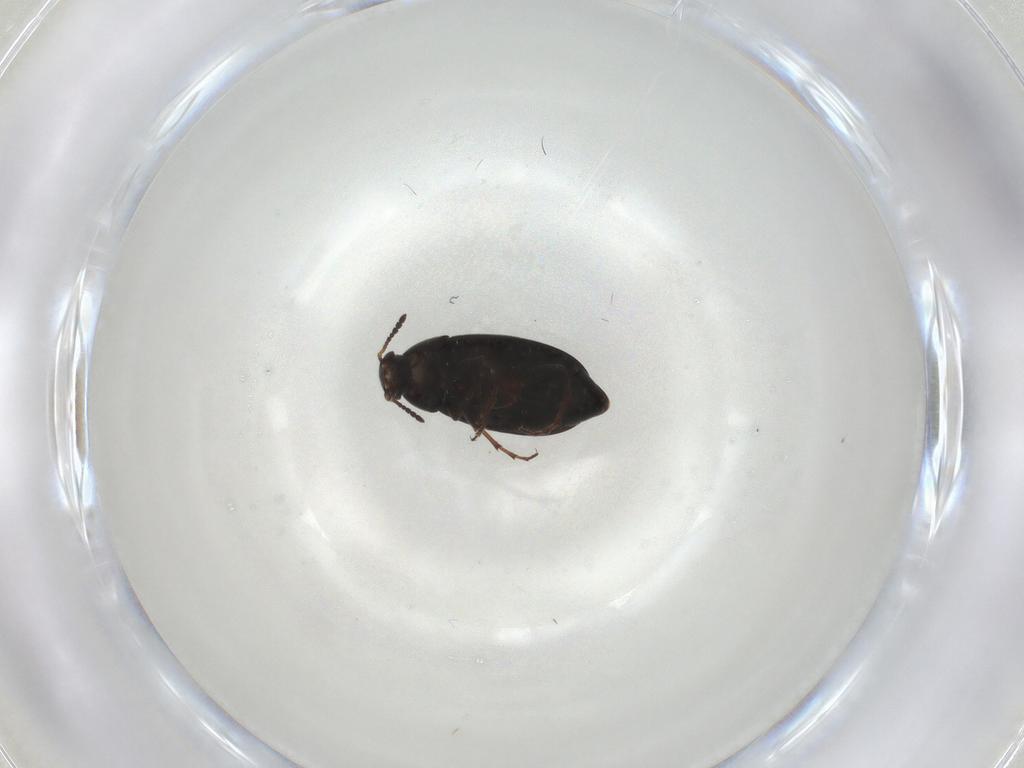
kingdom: Animalia
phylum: Arthropoda
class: Insecta
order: Coleoptera
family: Scraptiidae
